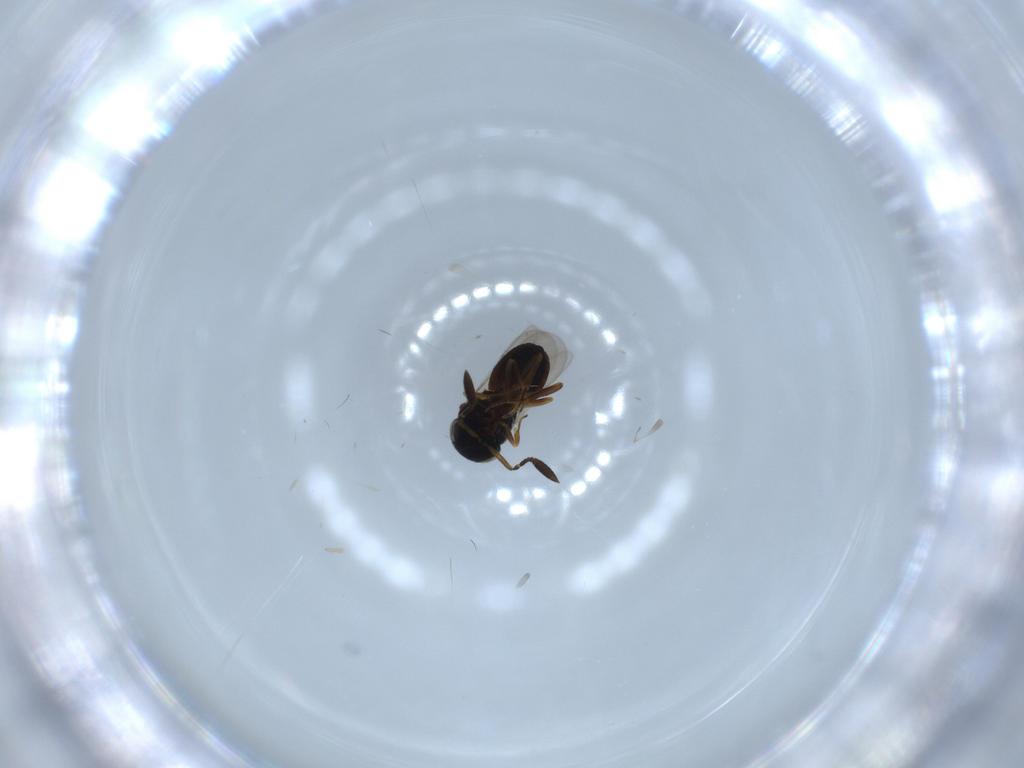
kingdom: Animalia
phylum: Arthropoda
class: Insecta
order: Coleoptera
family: Curculionidae
